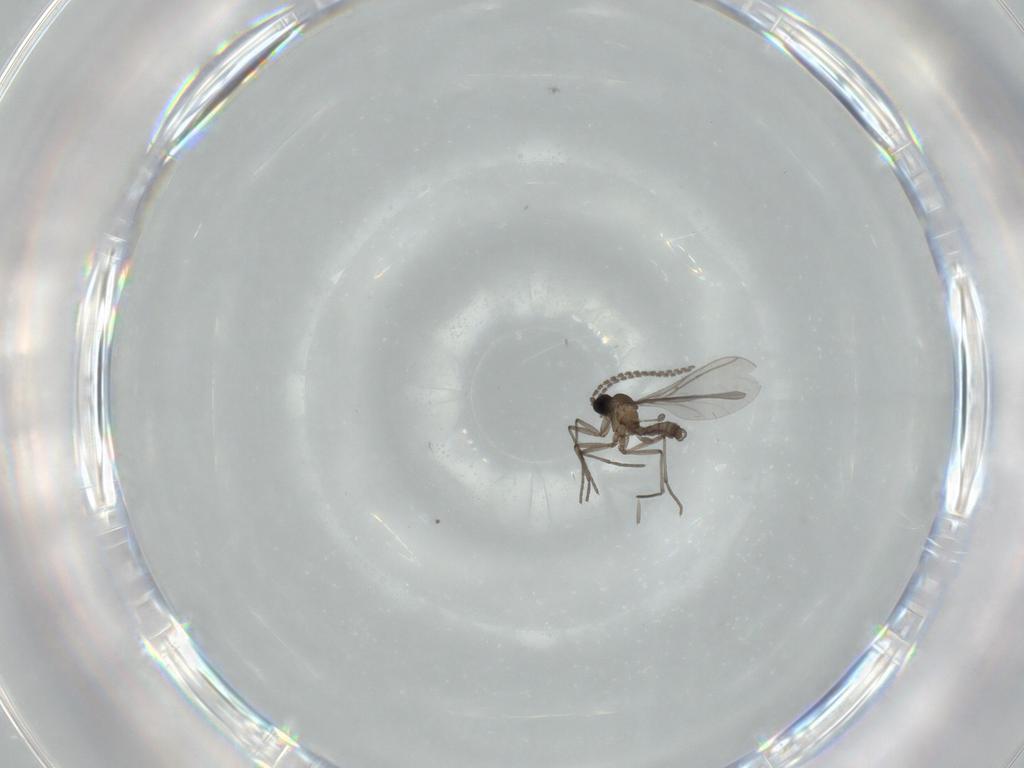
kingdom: Animalia
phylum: Arthropoda
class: Insecta
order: Diptera
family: Sciaridae
